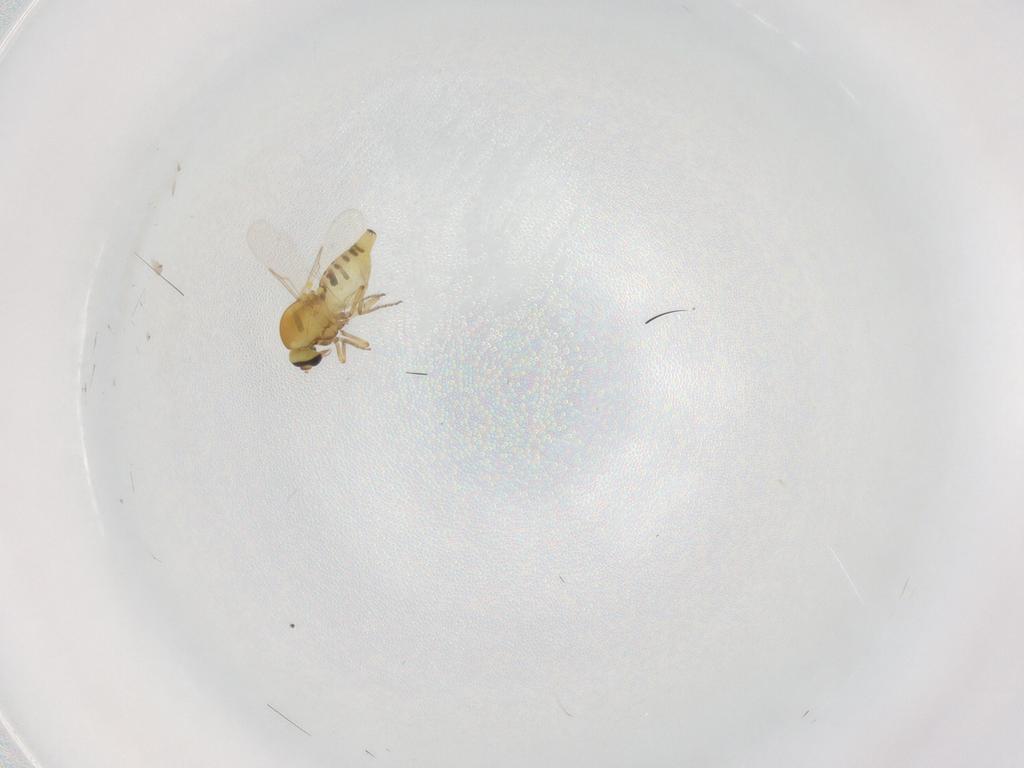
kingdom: Animalia
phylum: Arthropoda
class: Insecta
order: Diptera
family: Ceratopogonidae
